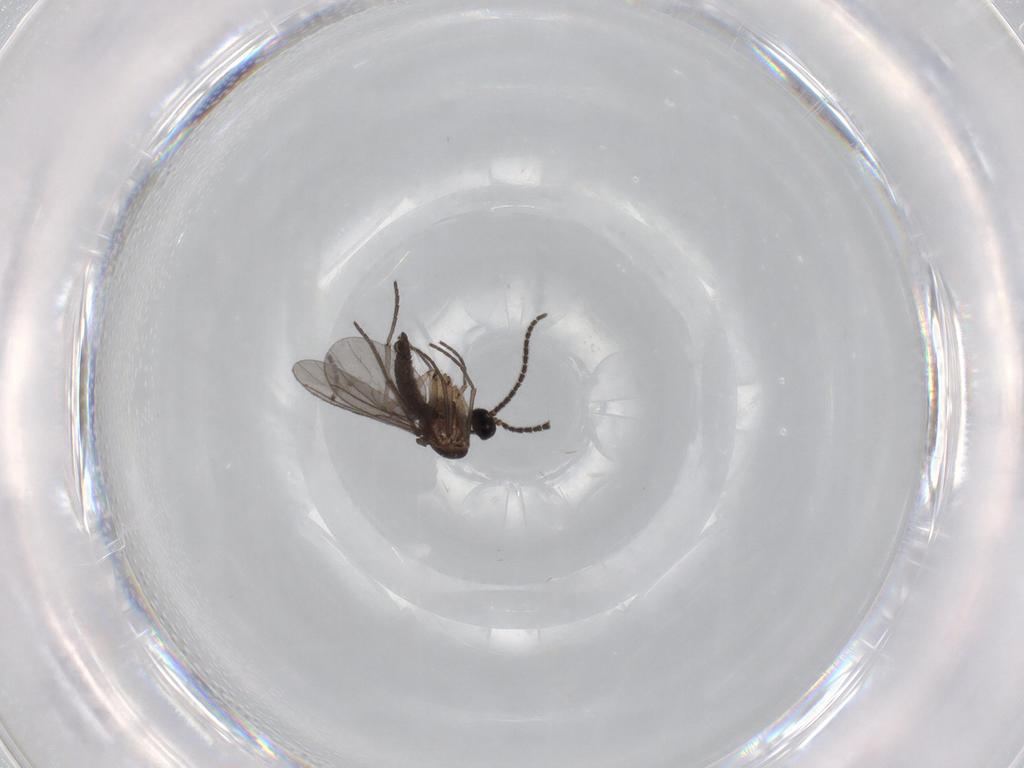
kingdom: Animalia
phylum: Arthropoda
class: Insecta
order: Diptera
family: Sciaridae
